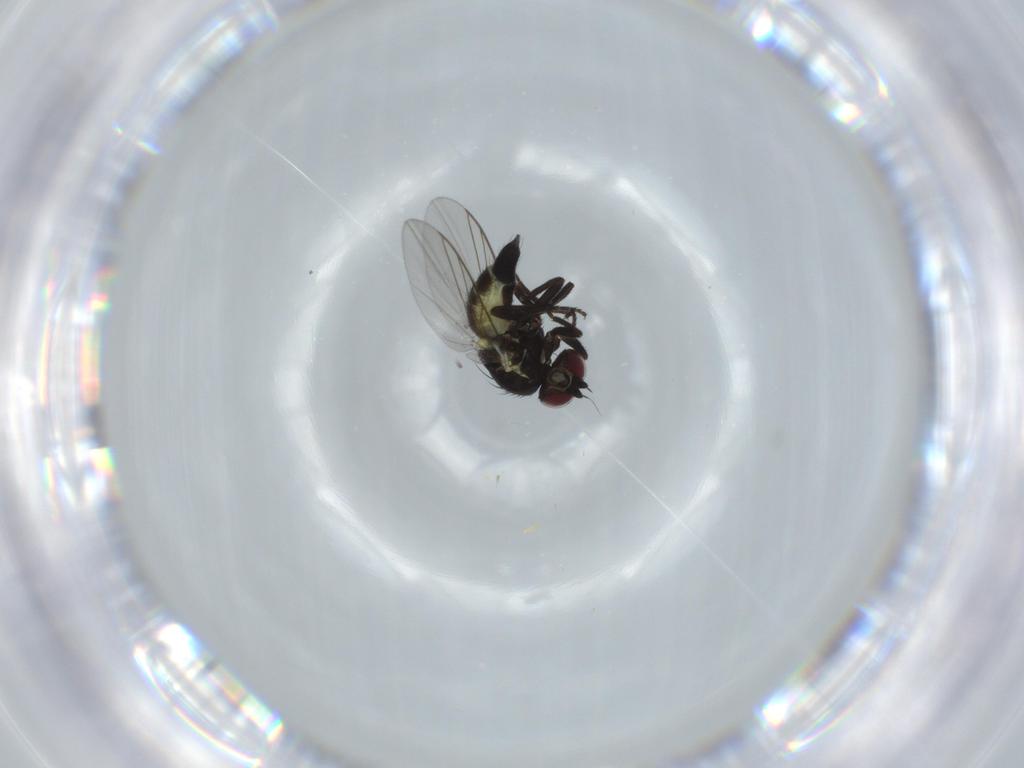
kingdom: Animalia
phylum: Arthropoda
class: Insecta
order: Diptera
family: Agromyzidae
